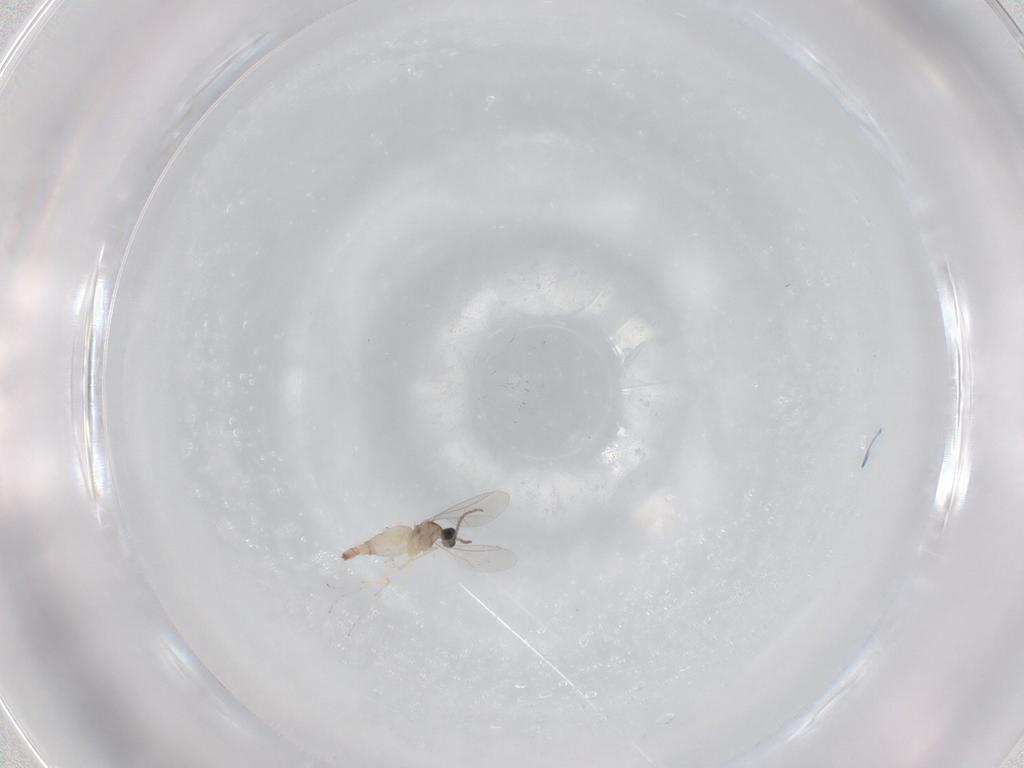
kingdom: Animalia
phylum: Arthropoda
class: Insecta
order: Diptera
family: Cecidomyiidae
